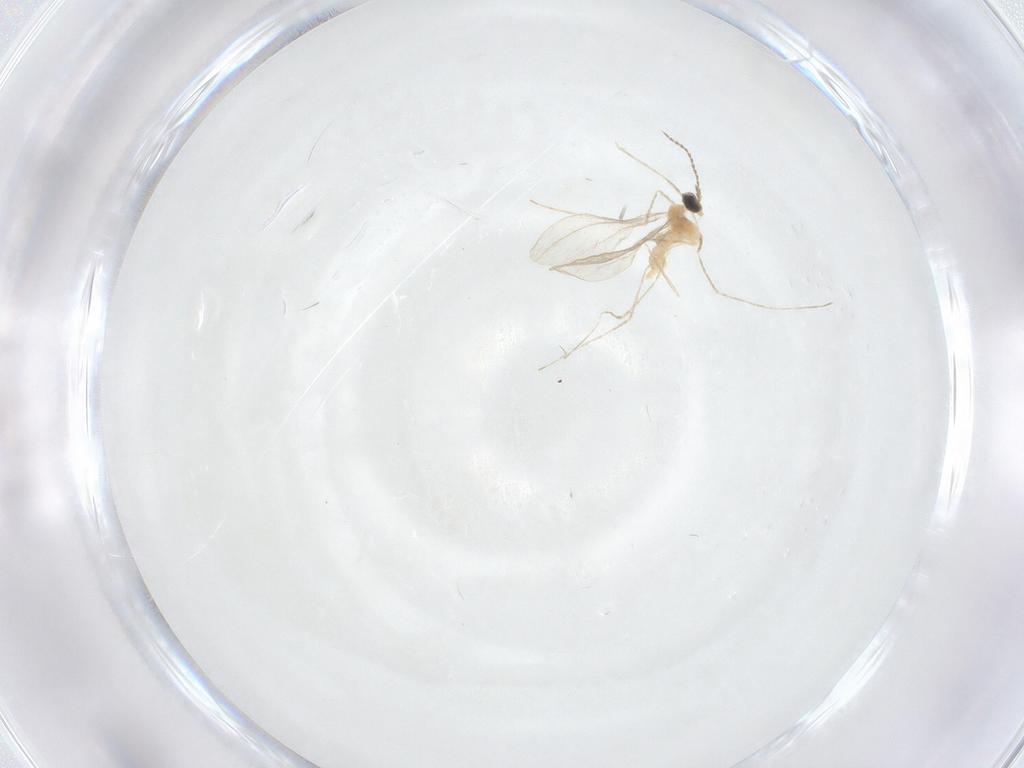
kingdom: Animalia
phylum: Arthropoda
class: Insecta
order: Diptera
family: Cecidomyiidae
